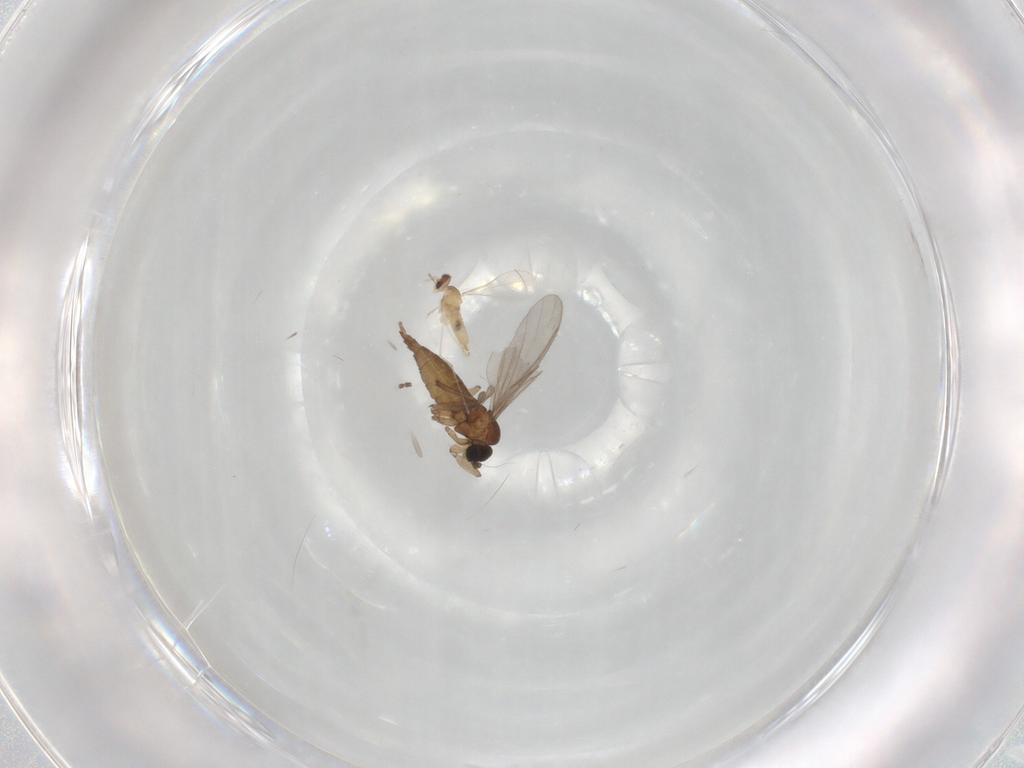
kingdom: Animalia
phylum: Arthropoda
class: Insecta
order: Diptera
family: Sciaridae
